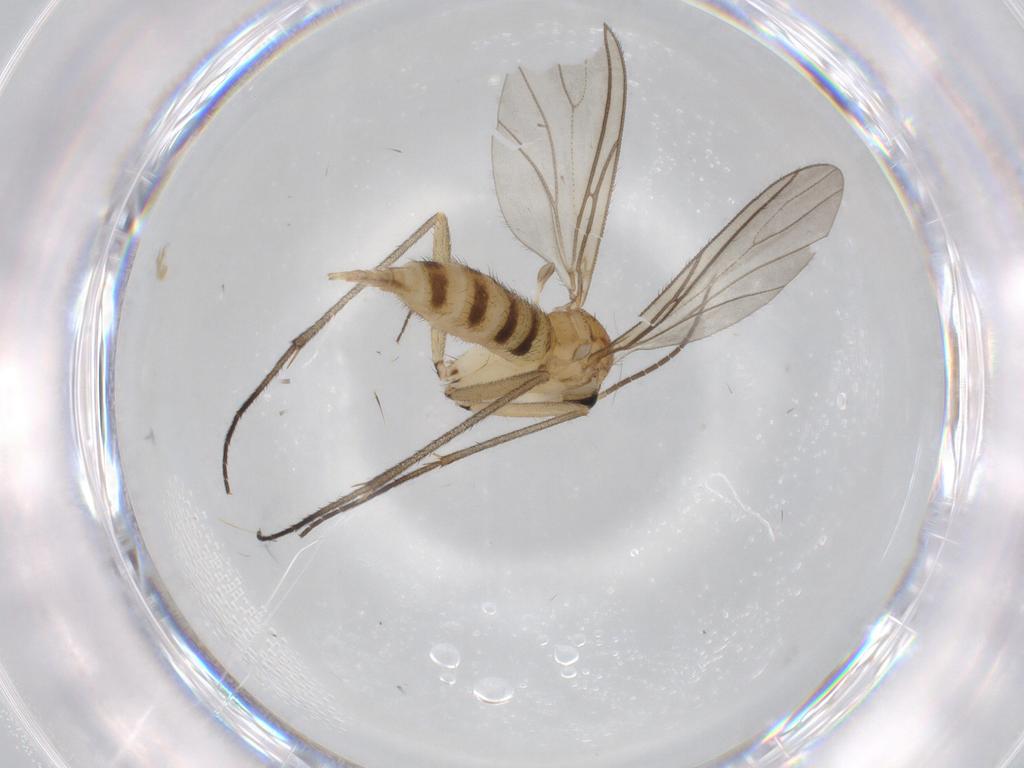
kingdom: Animalia
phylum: Arthropoda
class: Insecta
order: Diptera
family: Sciaridae
